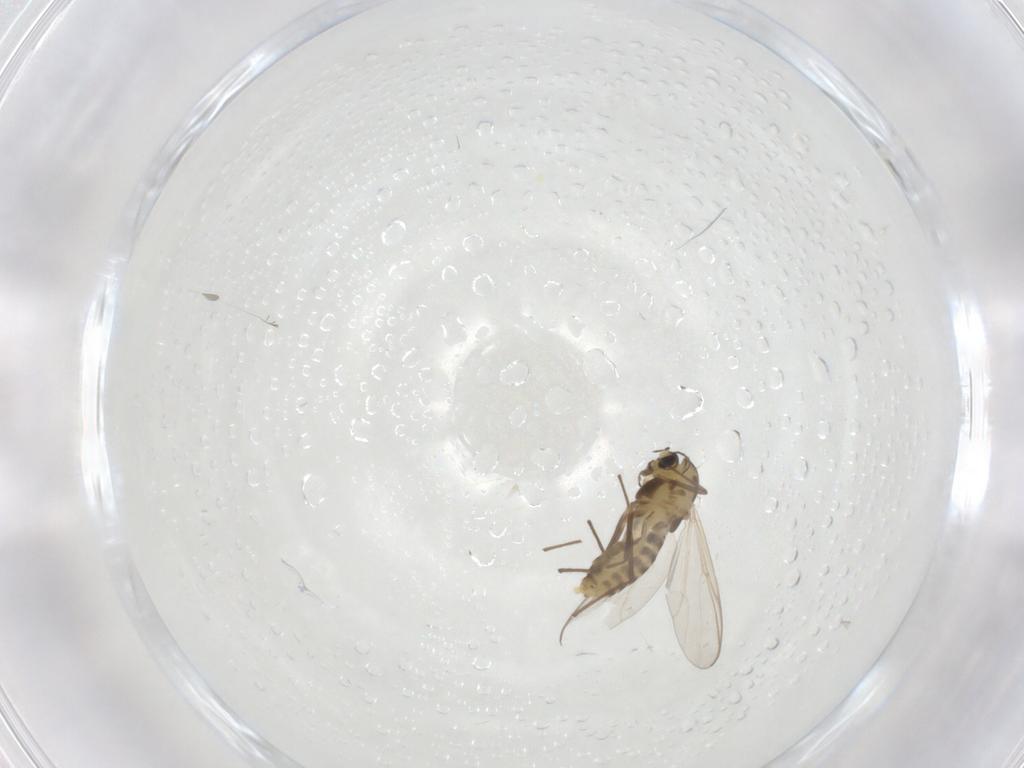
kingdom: Animalia
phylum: Arthropoda
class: Insecta
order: Diptera
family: Chironomidae
